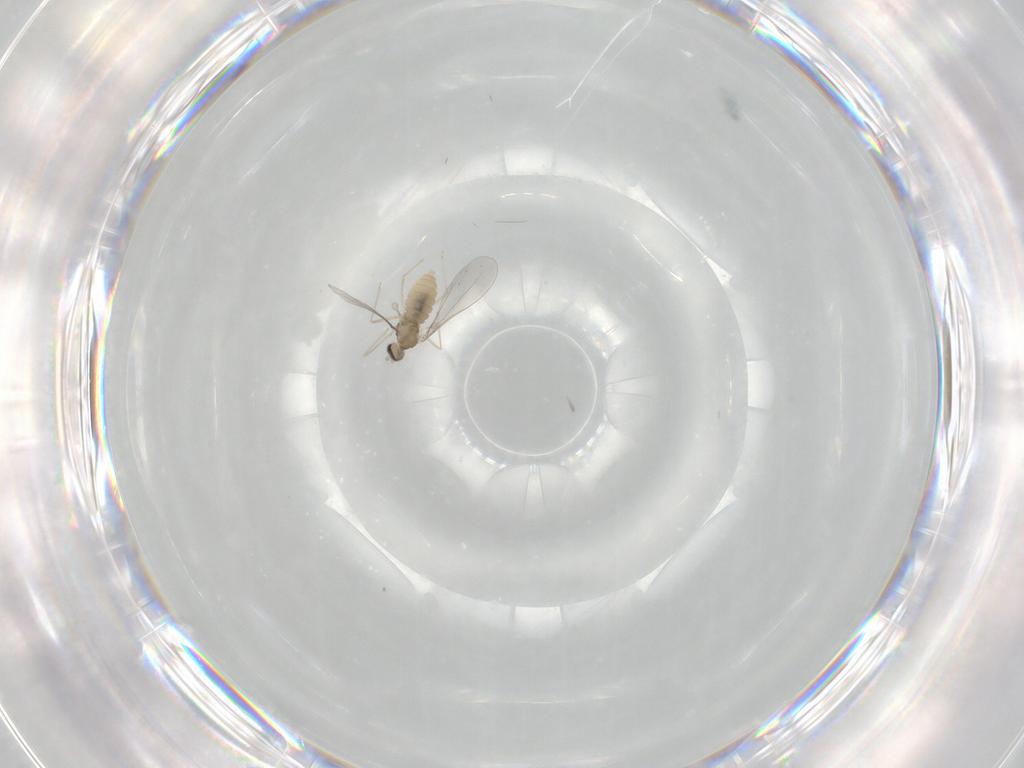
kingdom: Animalia
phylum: Arthropoda
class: Insecta
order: Diptera
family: Cecidomyiidae
